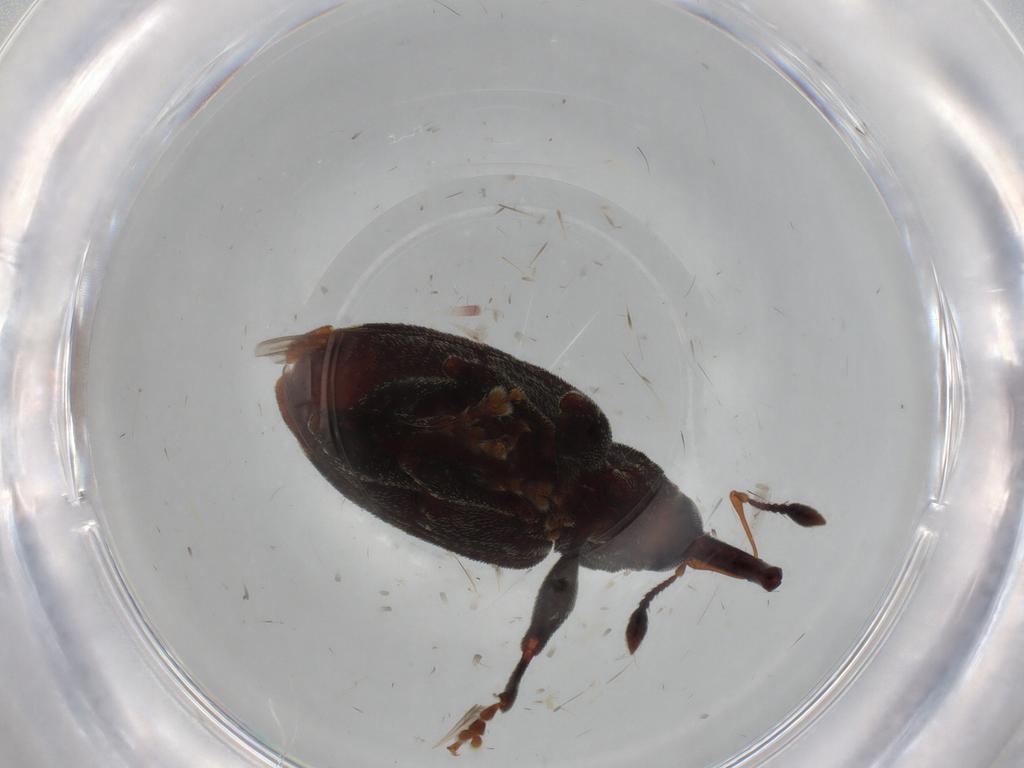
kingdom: Animalia
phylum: Arthropoda
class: Insecta
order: Coleoptera
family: Curculionidae
